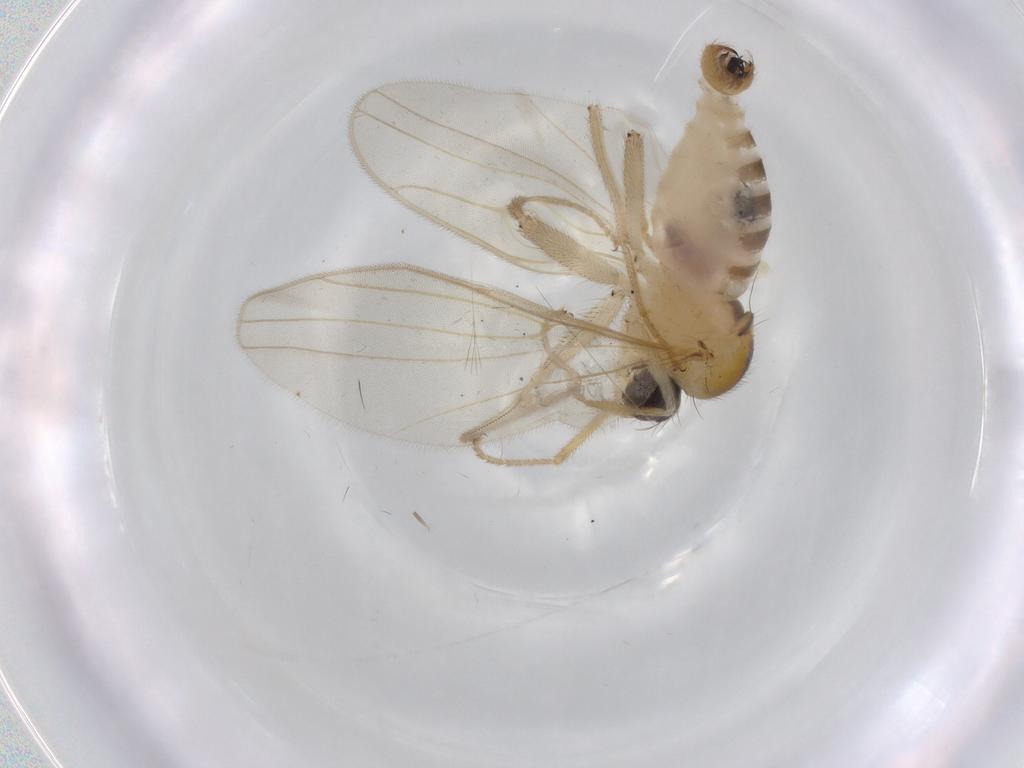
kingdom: Animalia
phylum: Arthropoda
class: Insecta
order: Diptera
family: Hybotidae
